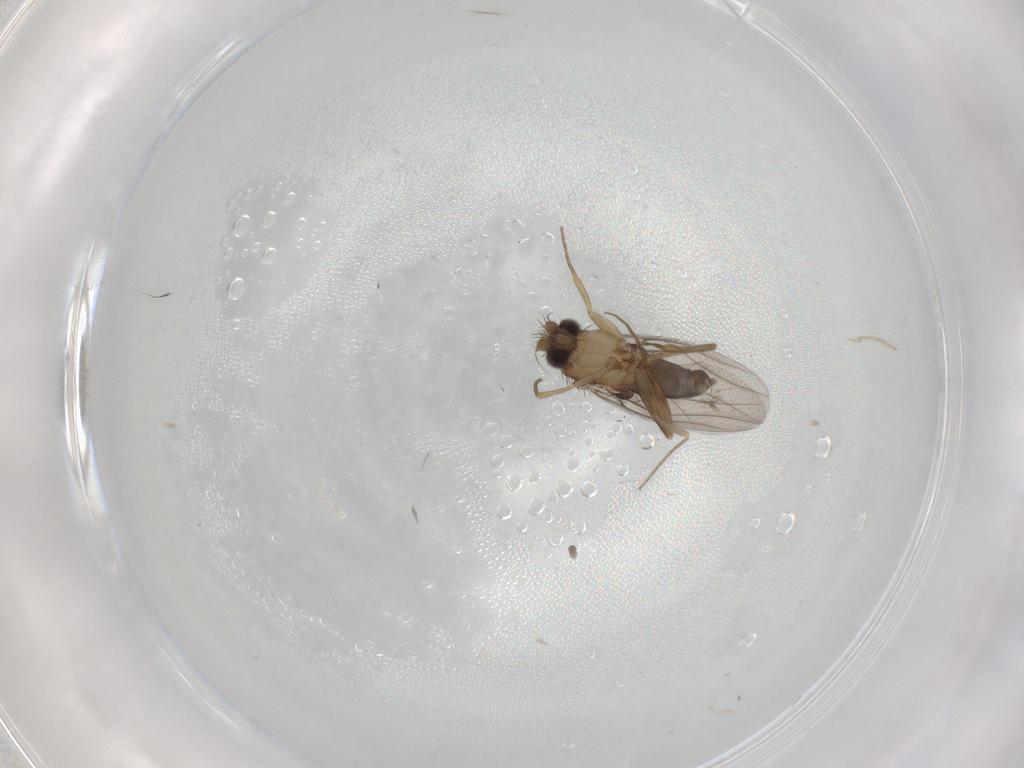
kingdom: Animalia
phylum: Arthropoda
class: Insecta
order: Diptera
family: Phoridae
